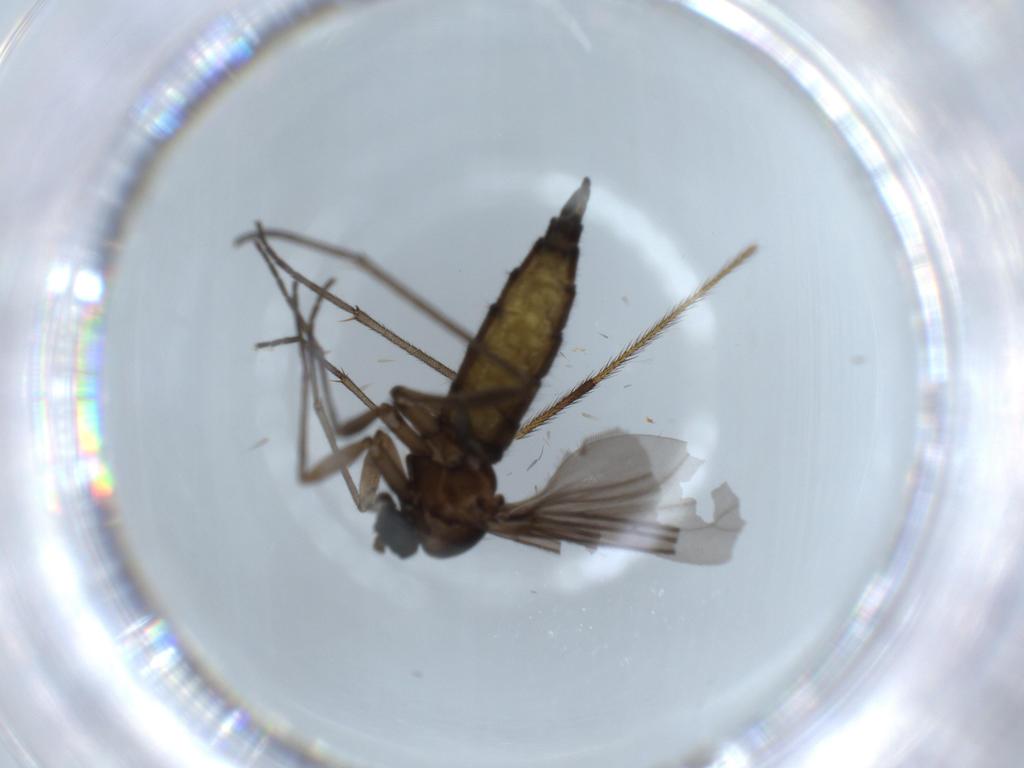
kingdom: Animalia
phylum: Arthropoda
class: Insecta
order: Diptera
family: Sciaridae
